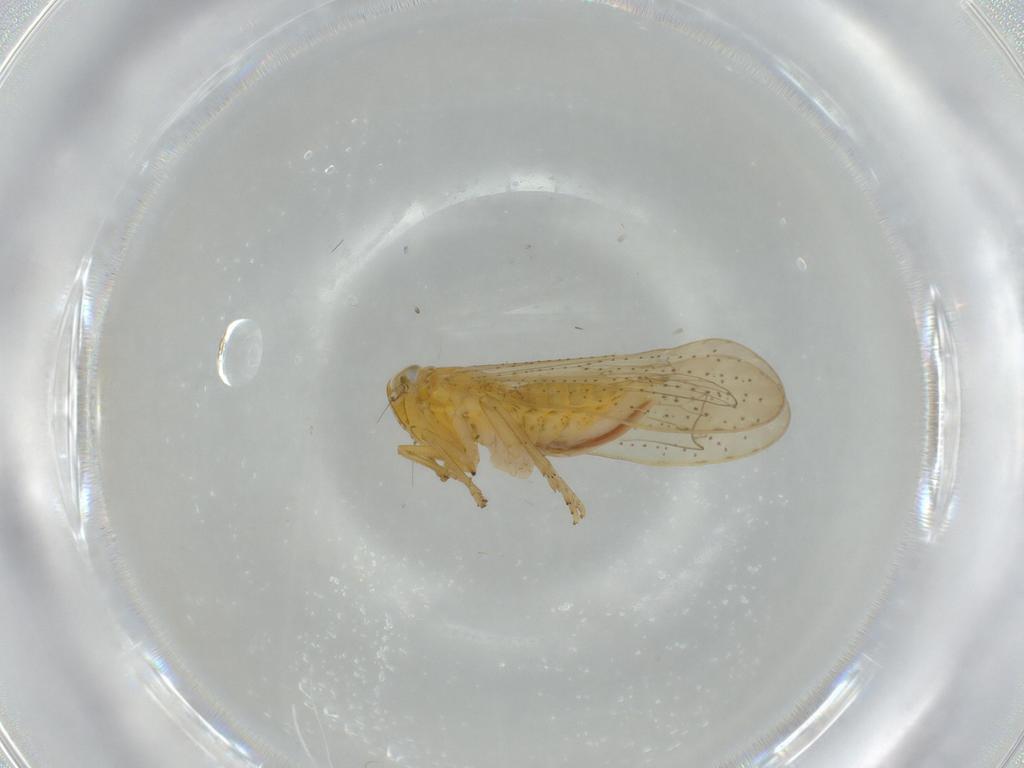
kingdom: Animalia
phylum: Arthropoda
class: Insecta
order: Hemiptera
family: Delphacidae
